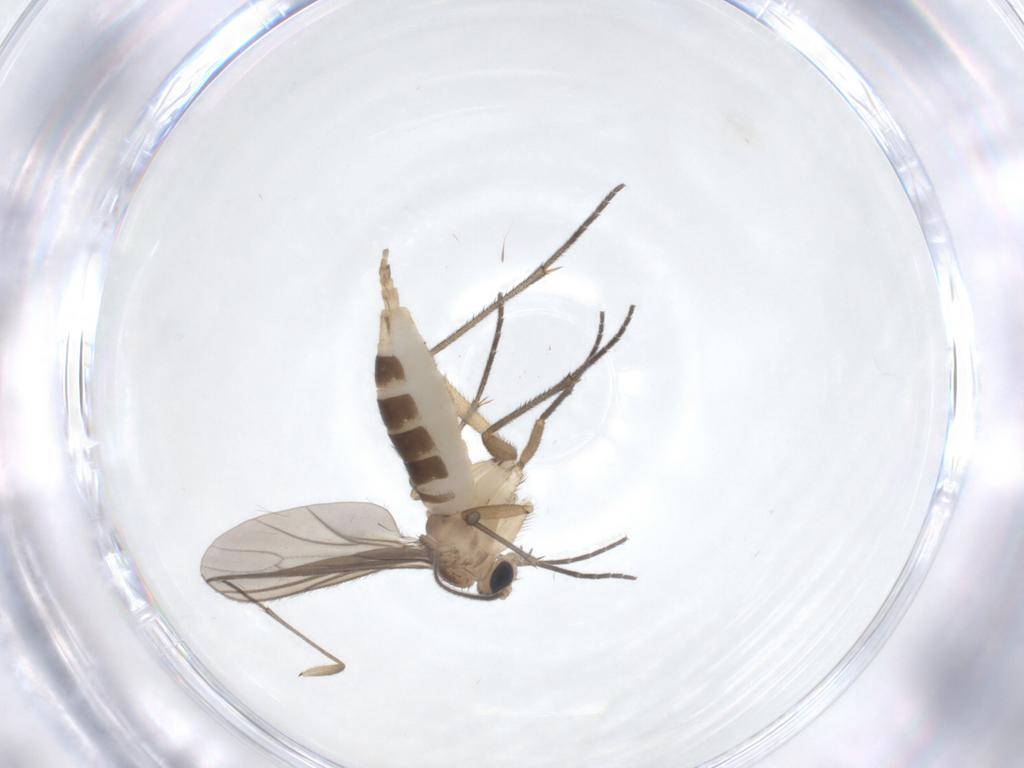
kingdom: Animalia
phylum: Arthropoda
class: Insecta
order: Diptera
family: Sciaridae
